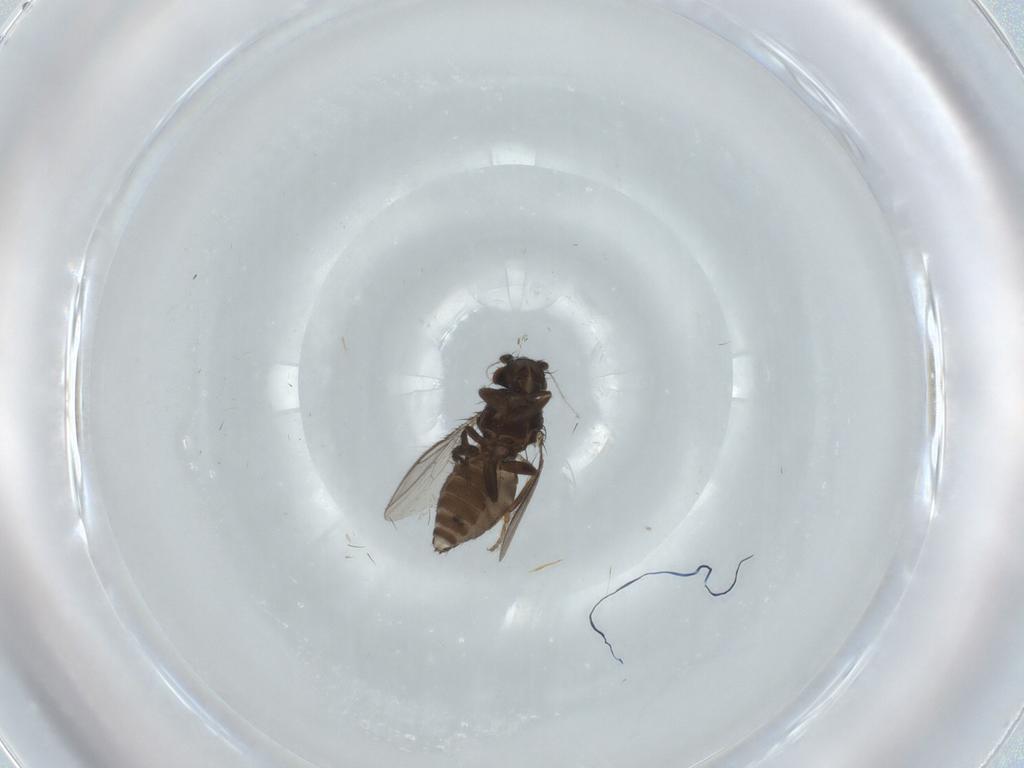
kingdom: Animalia
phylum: Arthropoda
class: Insecta
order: Diptera
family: Sphaeroceridae
